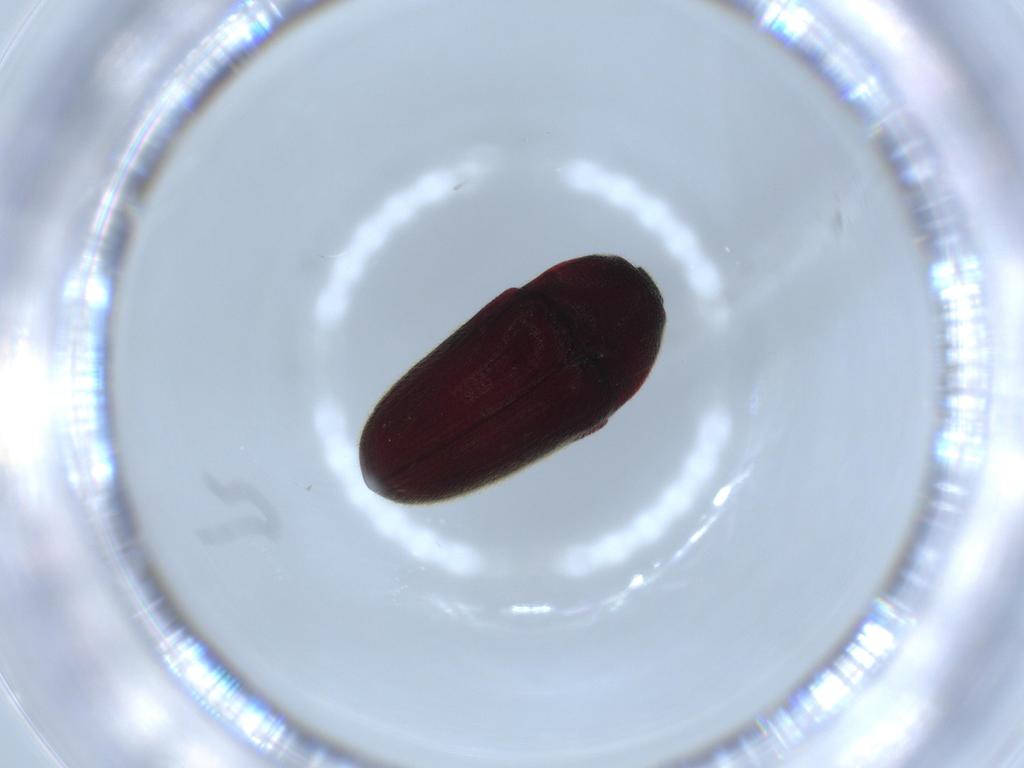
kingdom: Animalia
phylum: Arthropoda
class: Insecta
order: Coleoptera
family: Throscidae
